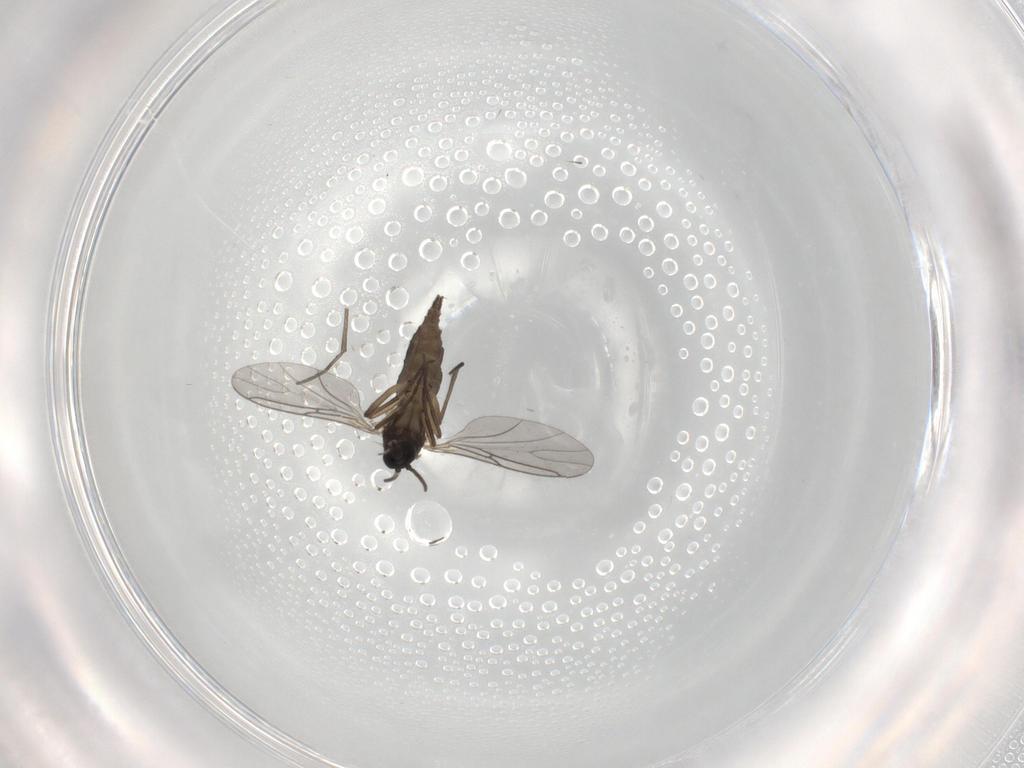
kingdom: Animalia
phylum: Arthropoda
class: Insecta
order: Diptera
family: Sciaridae
